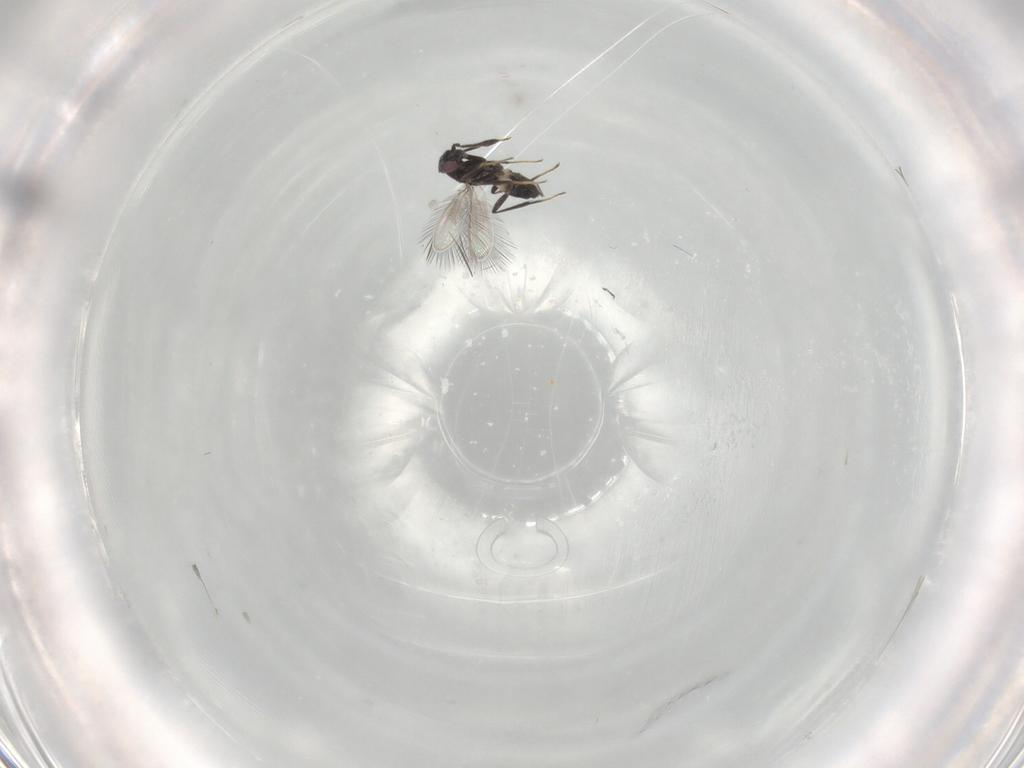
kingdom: Animalia
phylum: Arthropoda
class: Insecta
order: Hymenoptera
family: Mymaridae
